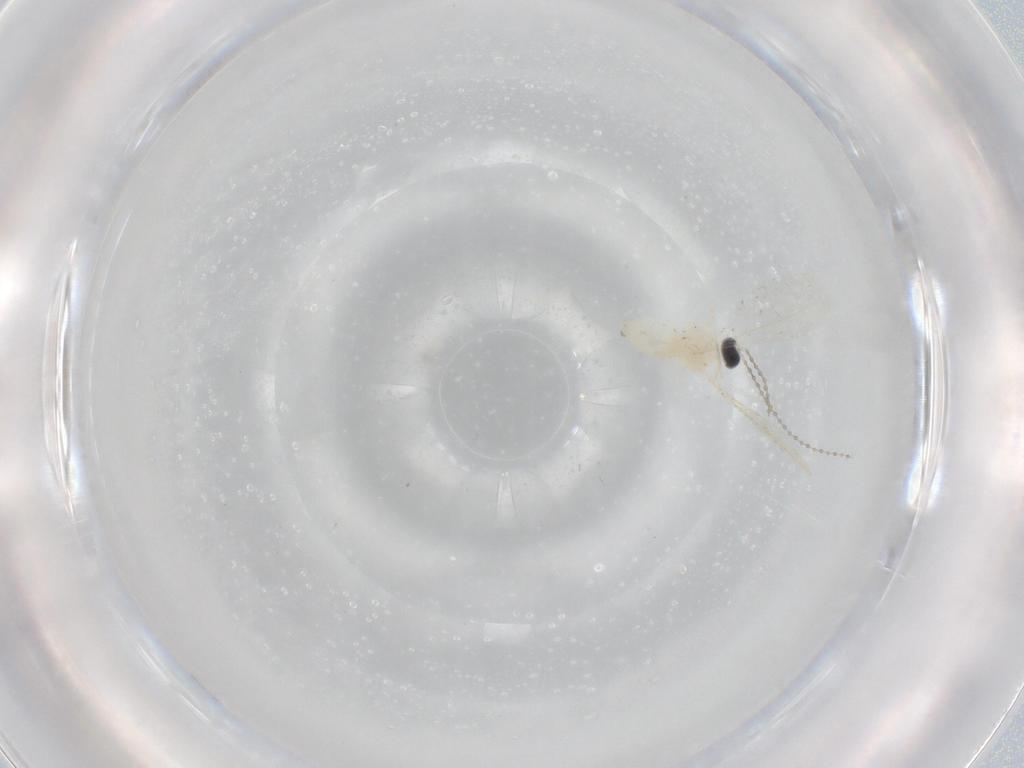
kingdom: Animalia
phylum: Arthropoda
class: Insecta
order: Diptera
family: Cecidomyiidae
